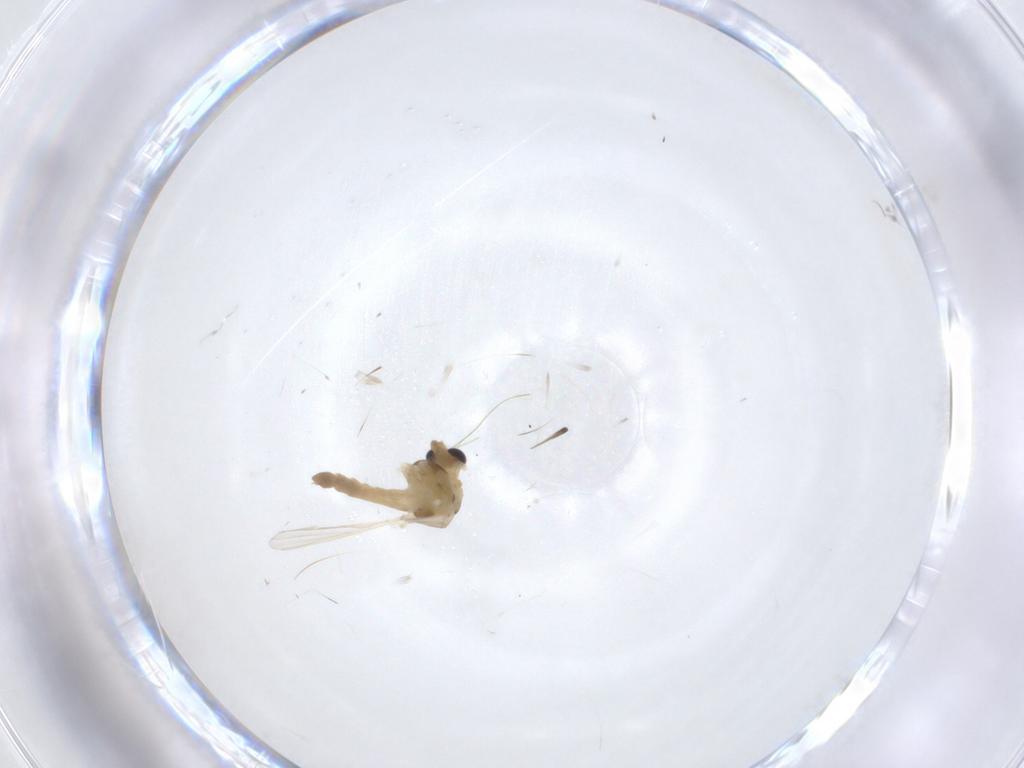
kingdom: Animalia
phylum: Arthropoda
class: Insecta
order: Diptera
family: Chironomidae
